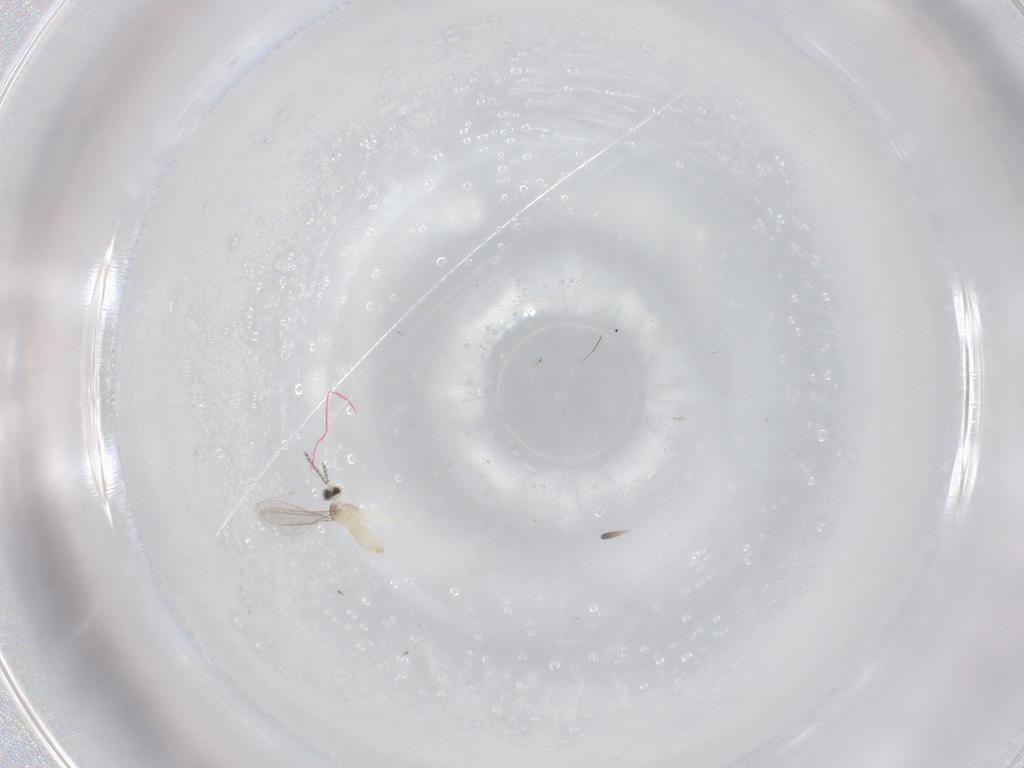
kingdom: Animalia
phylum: Arthropoda
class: Insecta
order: Diptera
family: Cecidomyiidae
